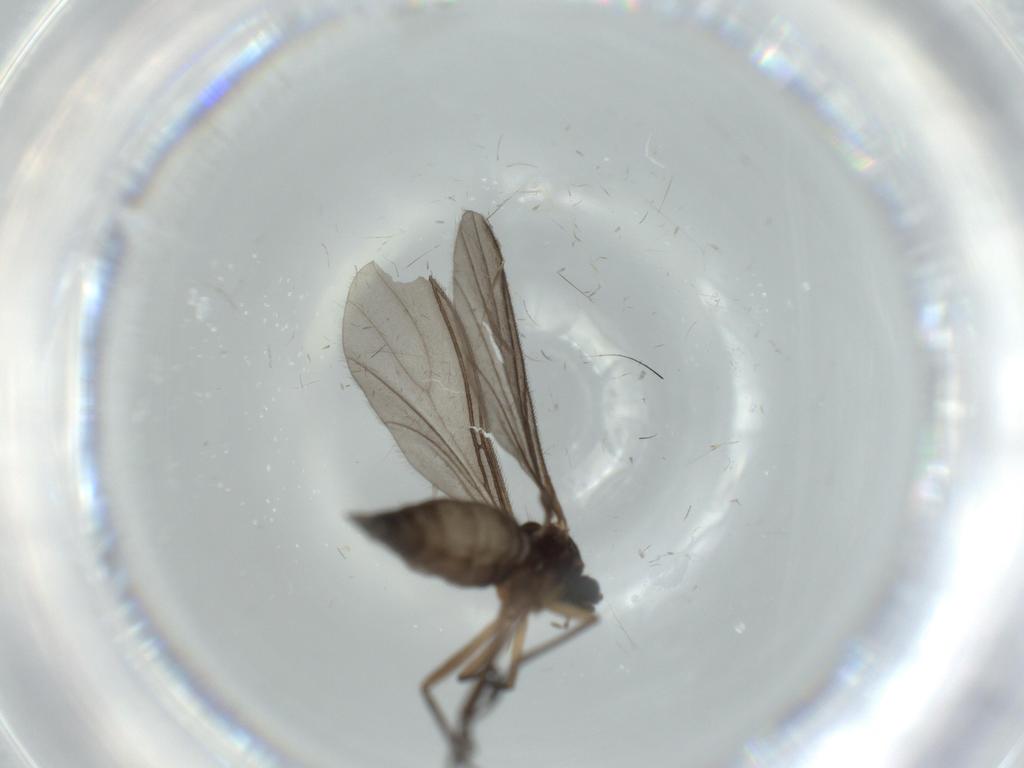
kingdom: Animalia
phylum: Arthropoda
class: Insecta
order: Diptera
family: Sciaridae
